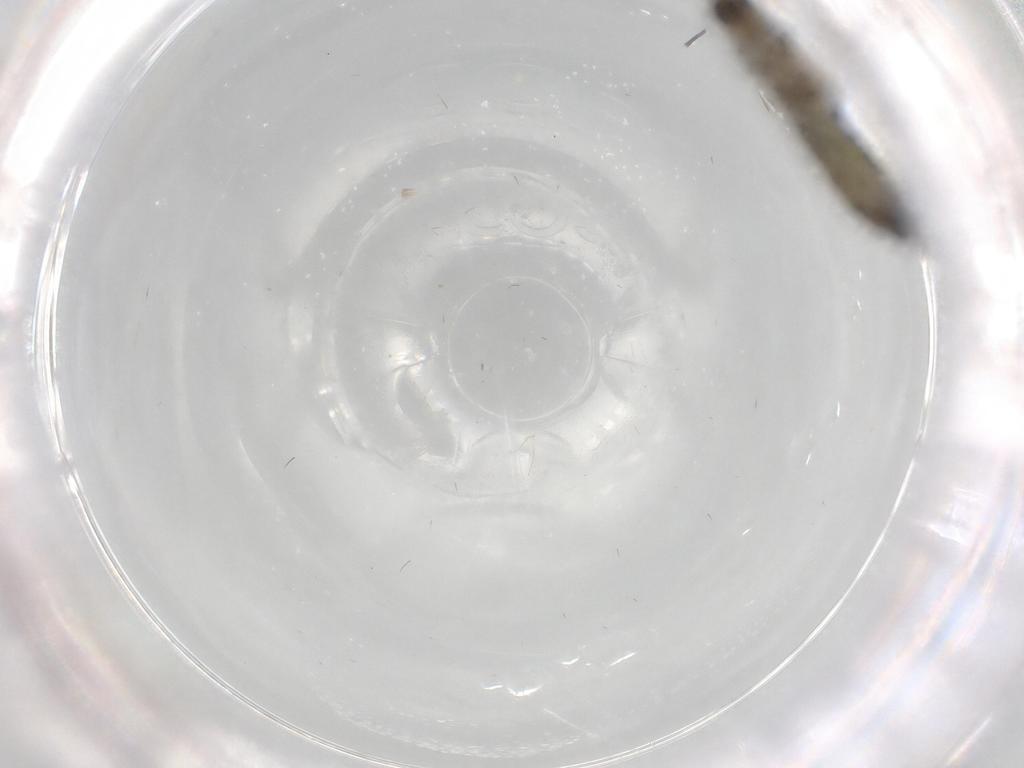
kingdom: Animalia
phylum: Arthropoda
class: Insecta
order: Diptera
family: Sciaridae
